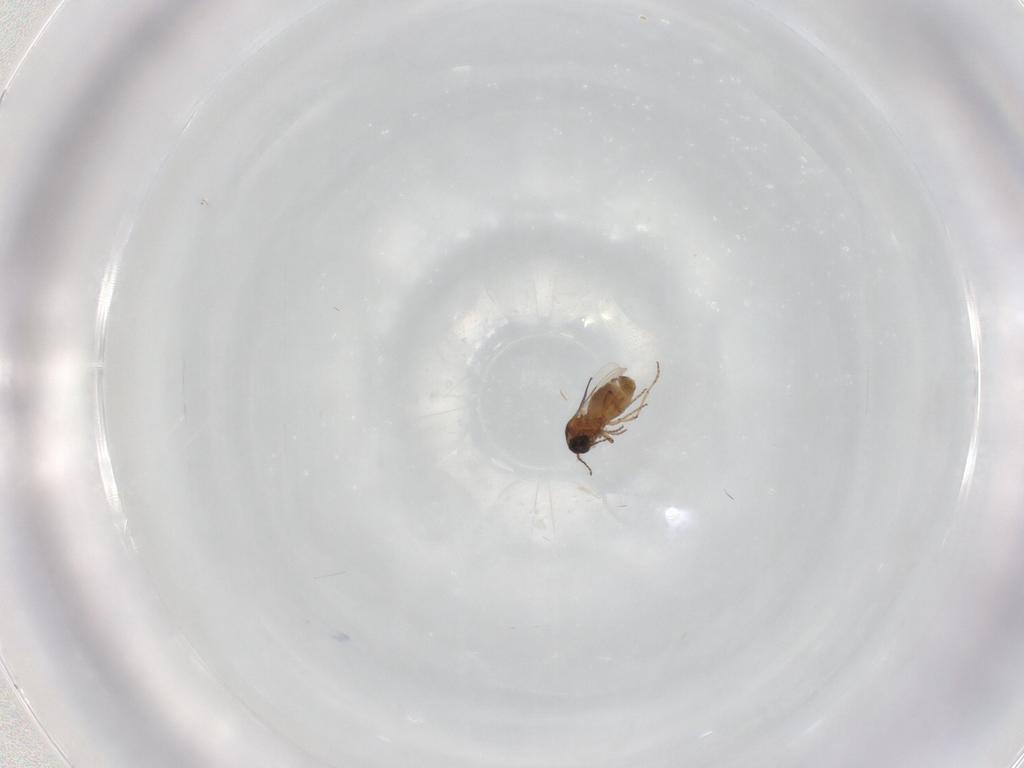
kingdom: Animalia
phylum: Arthropoda
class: Insecta
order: Diptera
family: Ceratopogonidae
